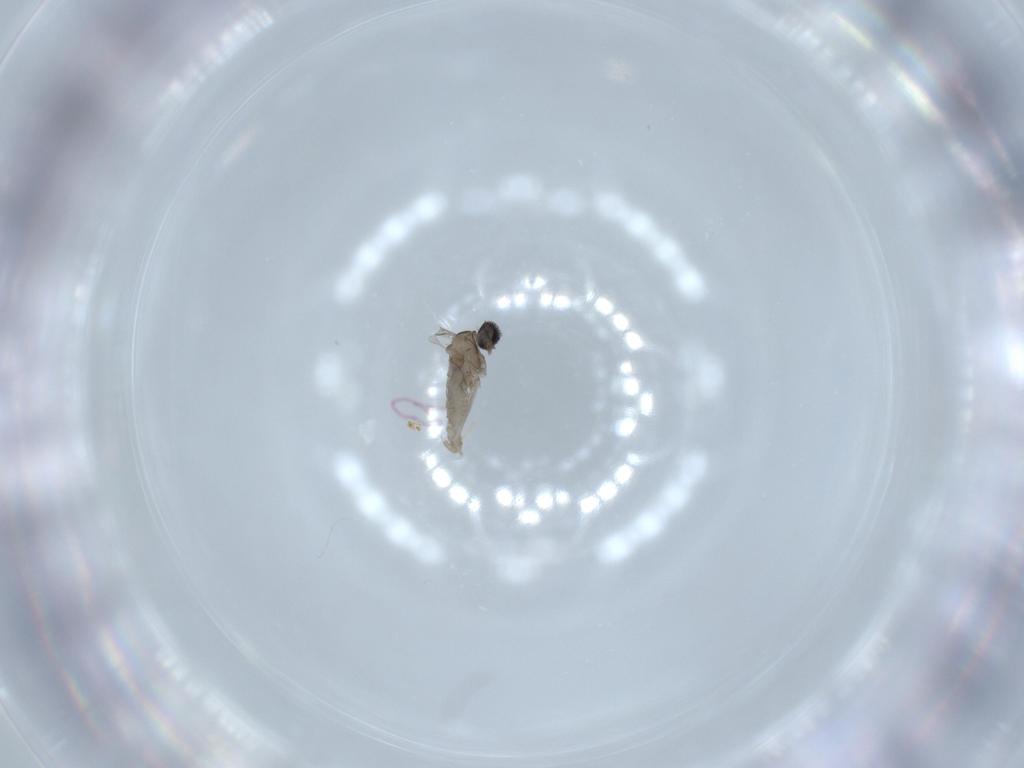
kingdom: Animalia
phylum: Arthropoda
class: Insecta
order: Diptera
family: Cecidomyiidae
